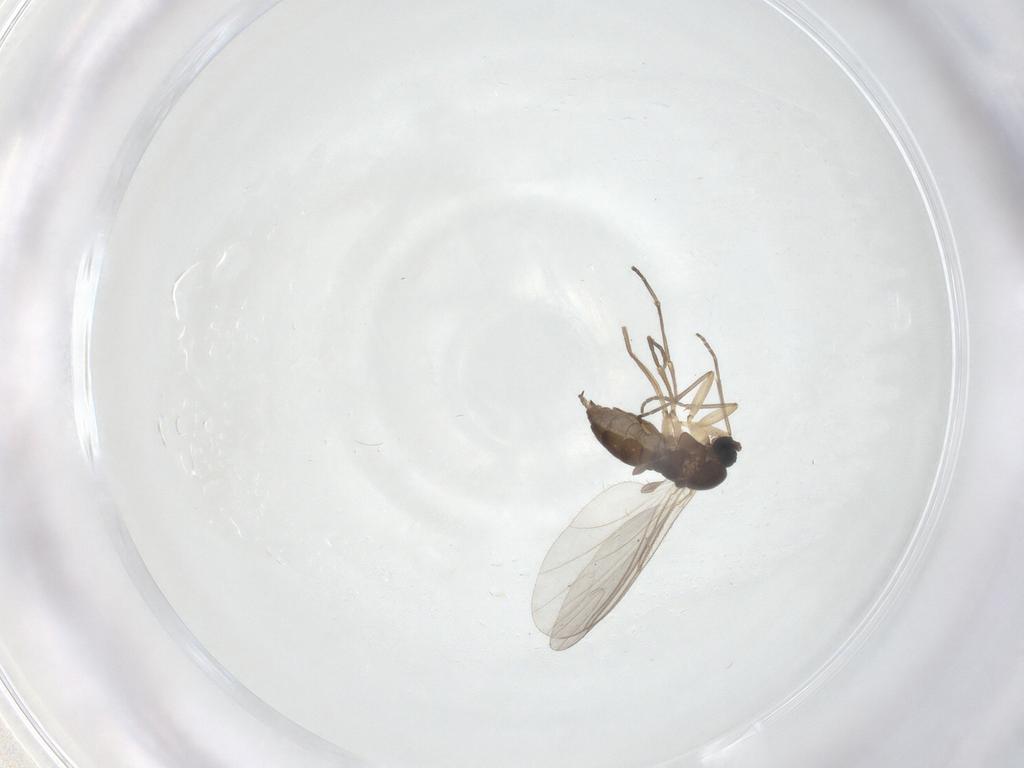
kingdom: Animalia
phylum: Arthropoda
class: Insecta
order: Diptera
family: Sciaridae
